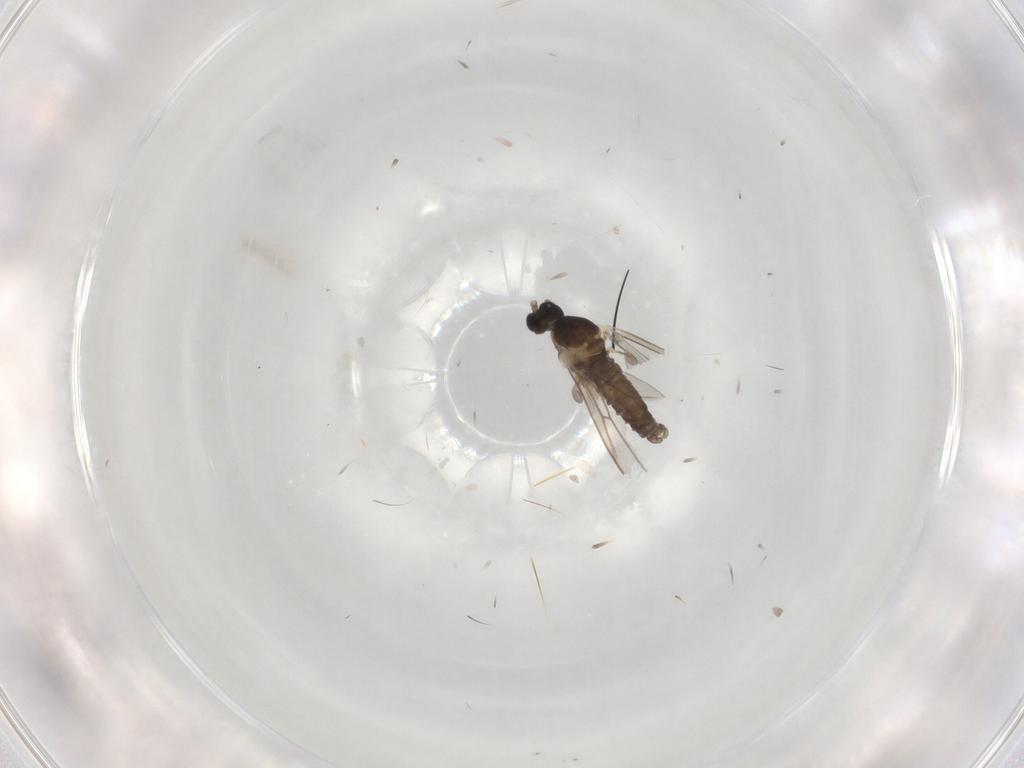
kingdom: Animalia
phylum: Arthropoda
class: Insecta
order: Diptera
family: Cecidomyiidae
